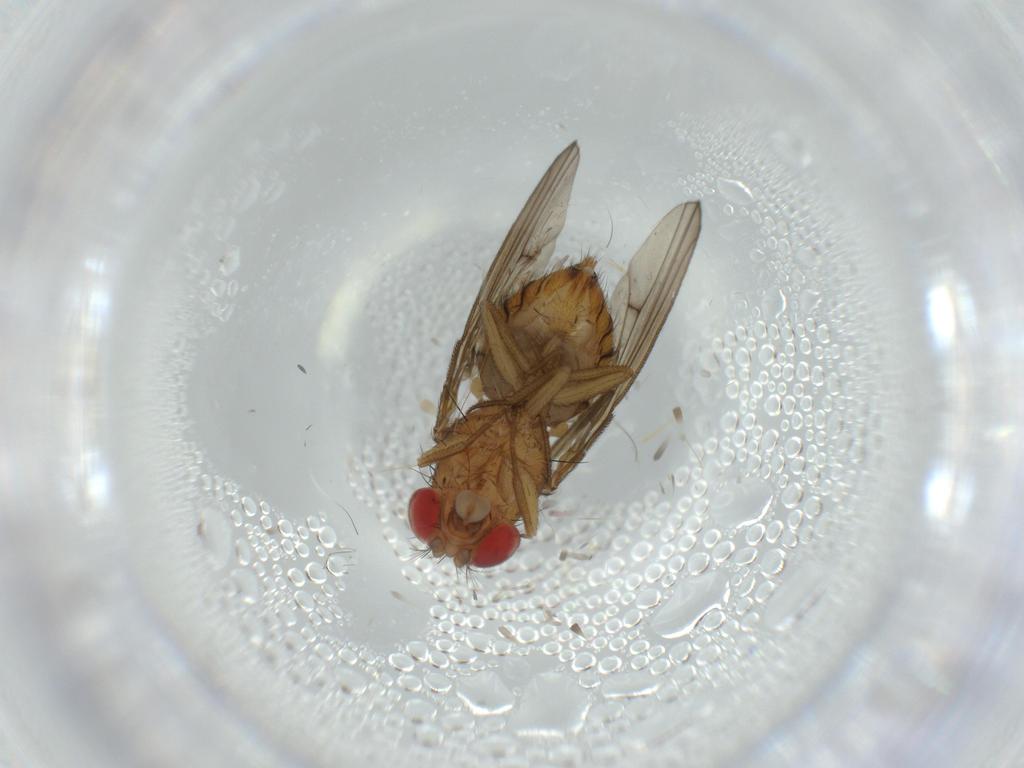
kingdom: Animalia
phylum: Arthropoda
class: Insecta
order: Diptera
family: Drosophilidae
